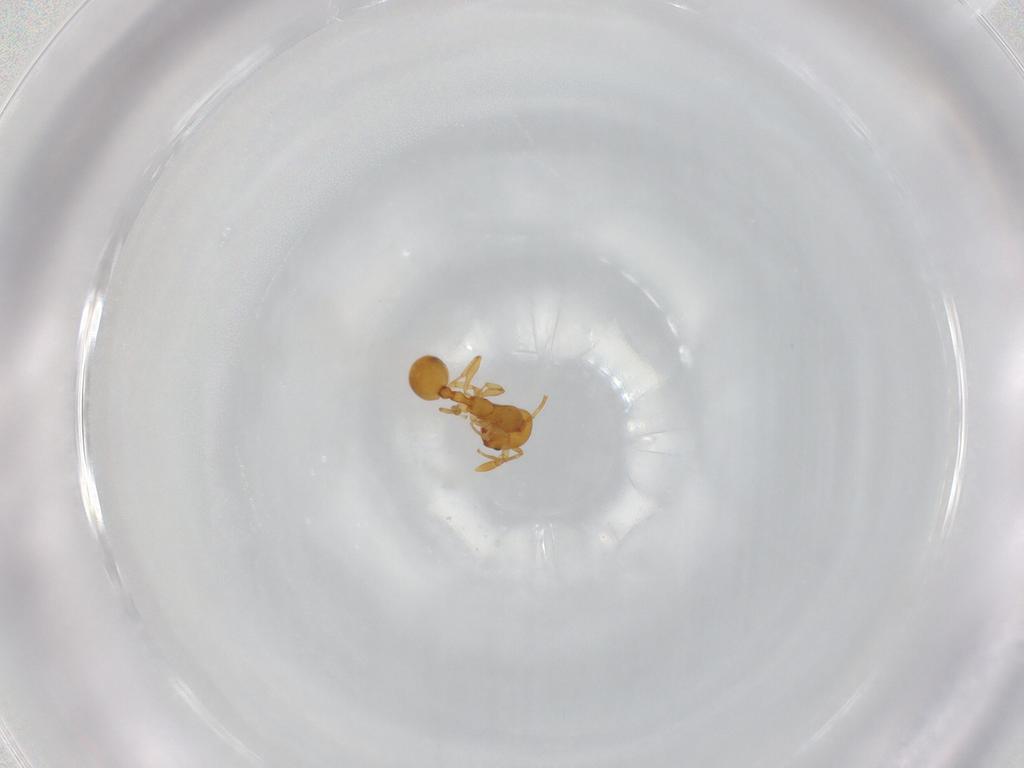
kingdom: Animalia
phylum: Arthropoda
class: Insecta
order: Hymenoptera
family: Formicidae
